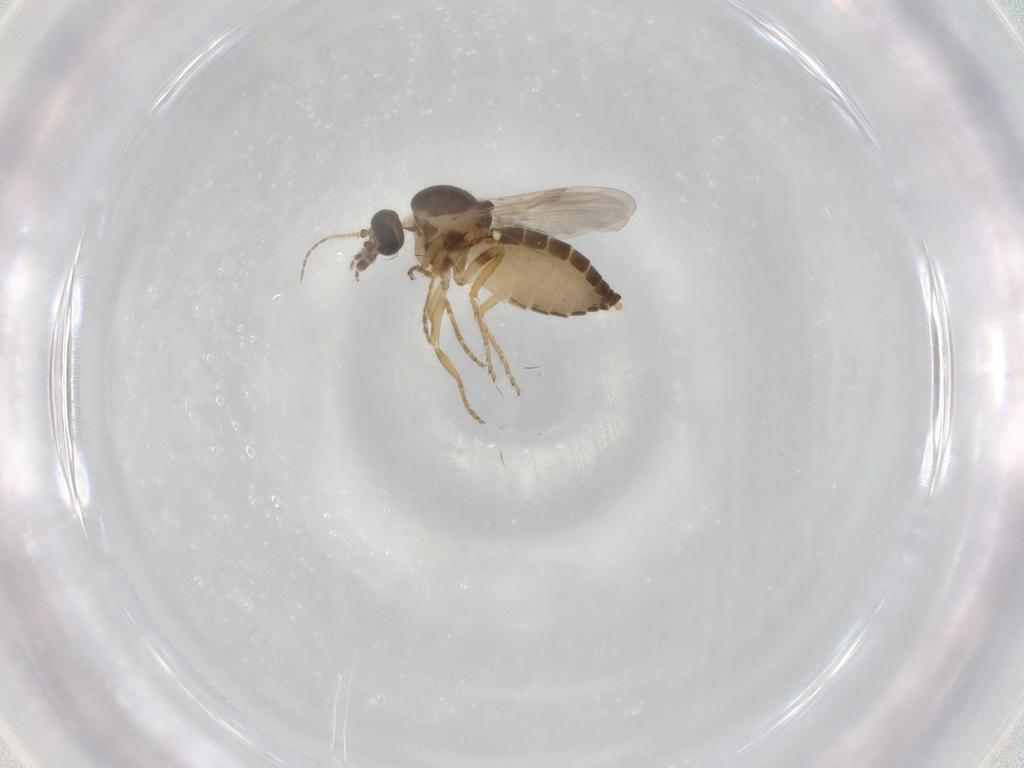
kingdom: Animalia
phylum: Arthropoda
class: Insecta
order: Diptera
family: Ceratopogonidae
